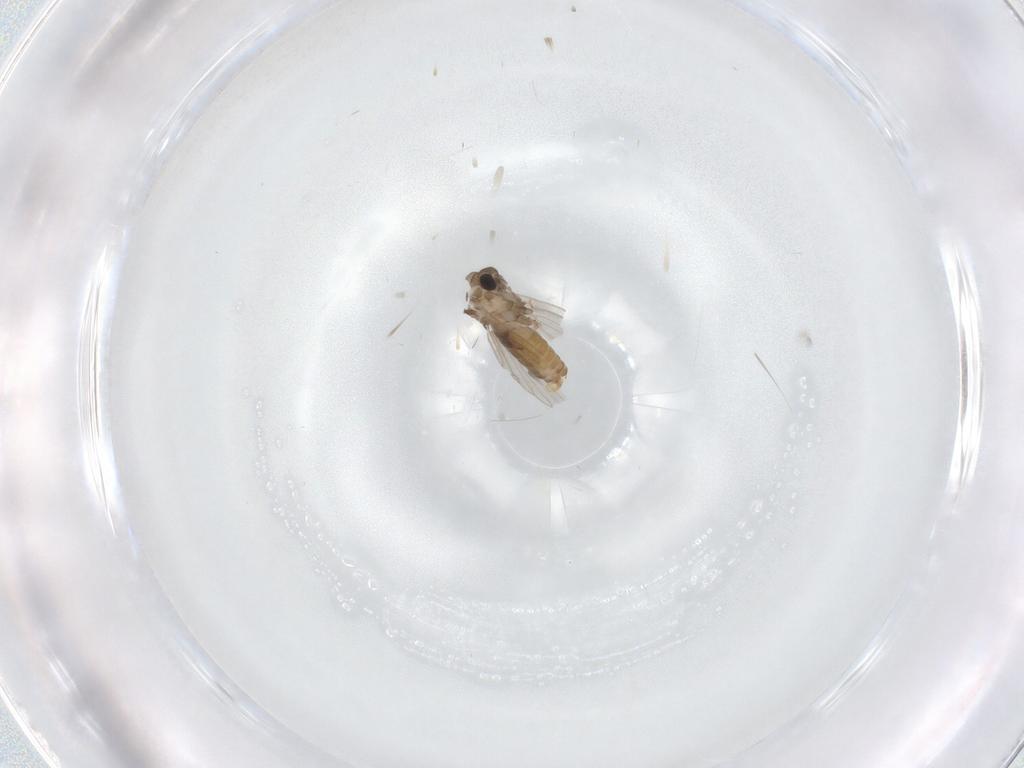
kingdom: Animalia
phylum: Arthropoda
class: Insecta
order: Diptera
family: Psychodidae
